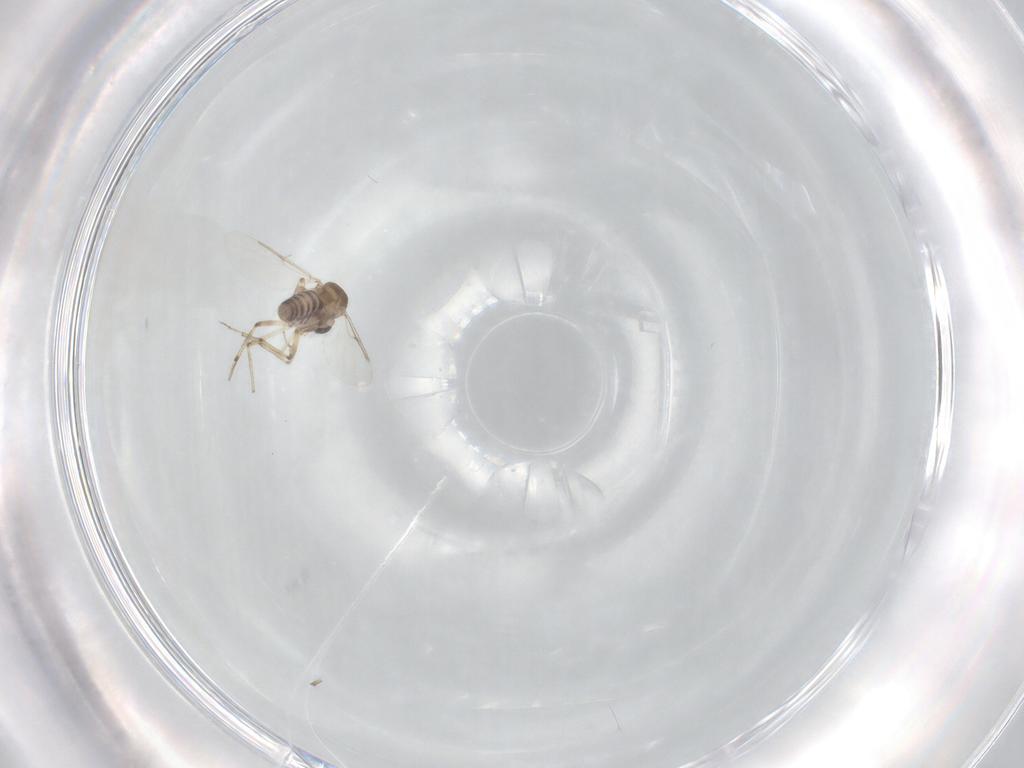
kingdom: Animalia
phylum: Arthropoda
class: Insecta
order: Diptera
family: Ceratopogonidae
